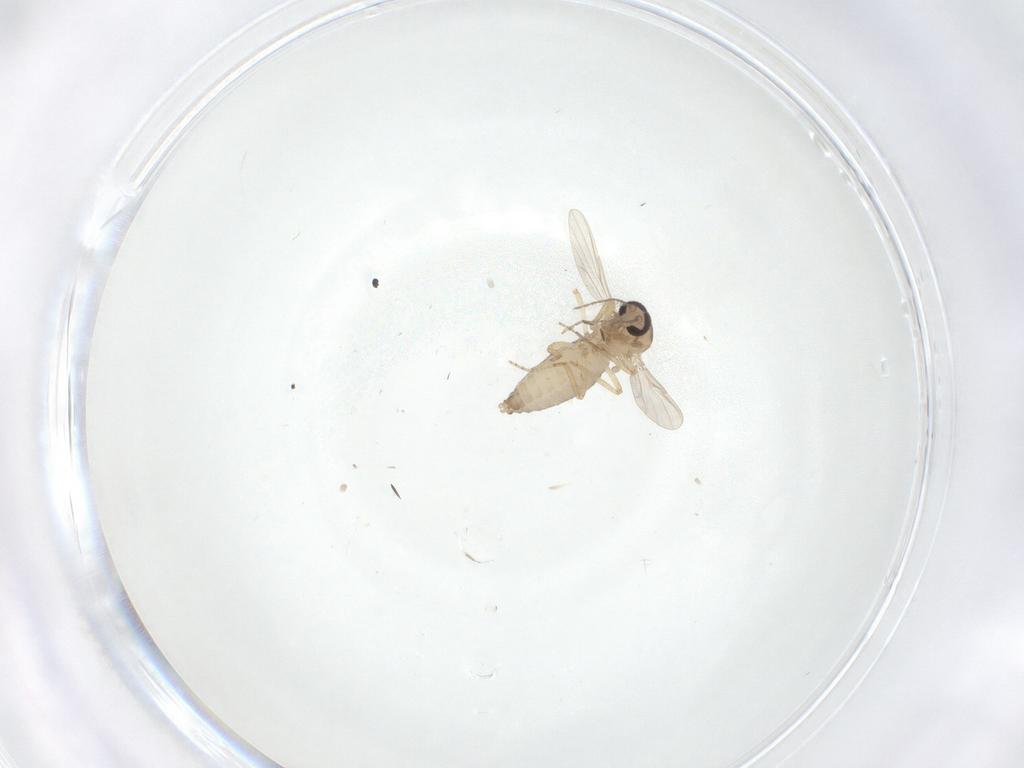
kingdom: Animalia
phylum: Arthropoda
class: Insecta
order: Diptera
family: Ceratopogonidae
